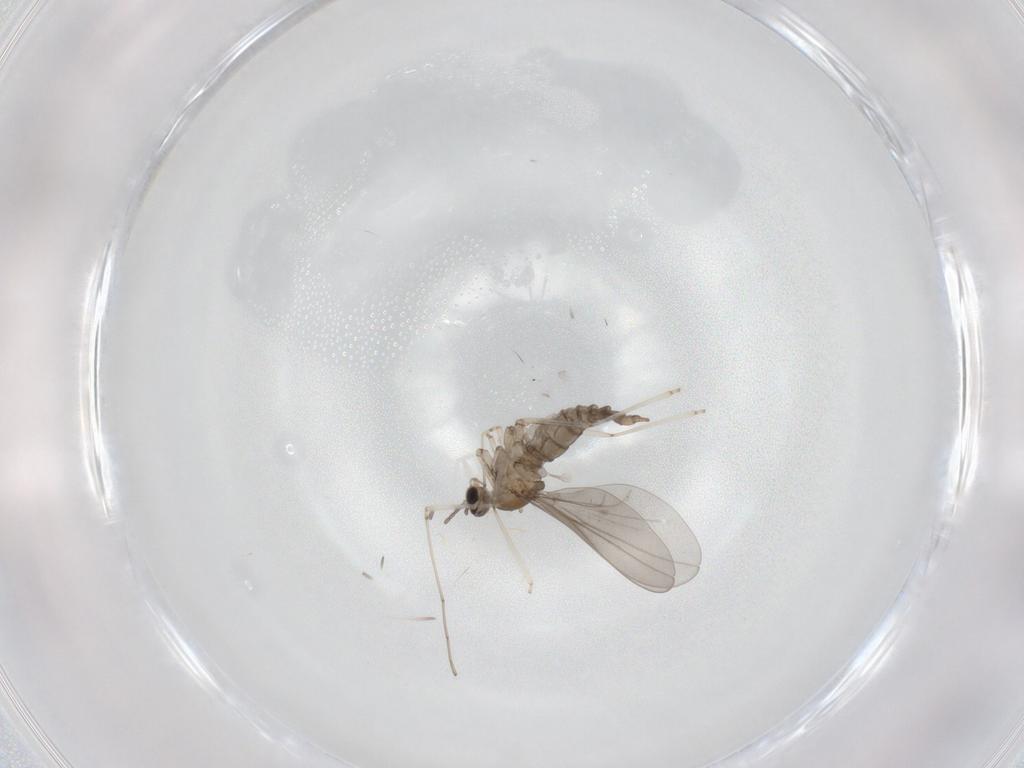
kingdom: Animalia
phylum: Arthropoda
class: Insecta
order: Diptera
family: Cecidomyiidae
